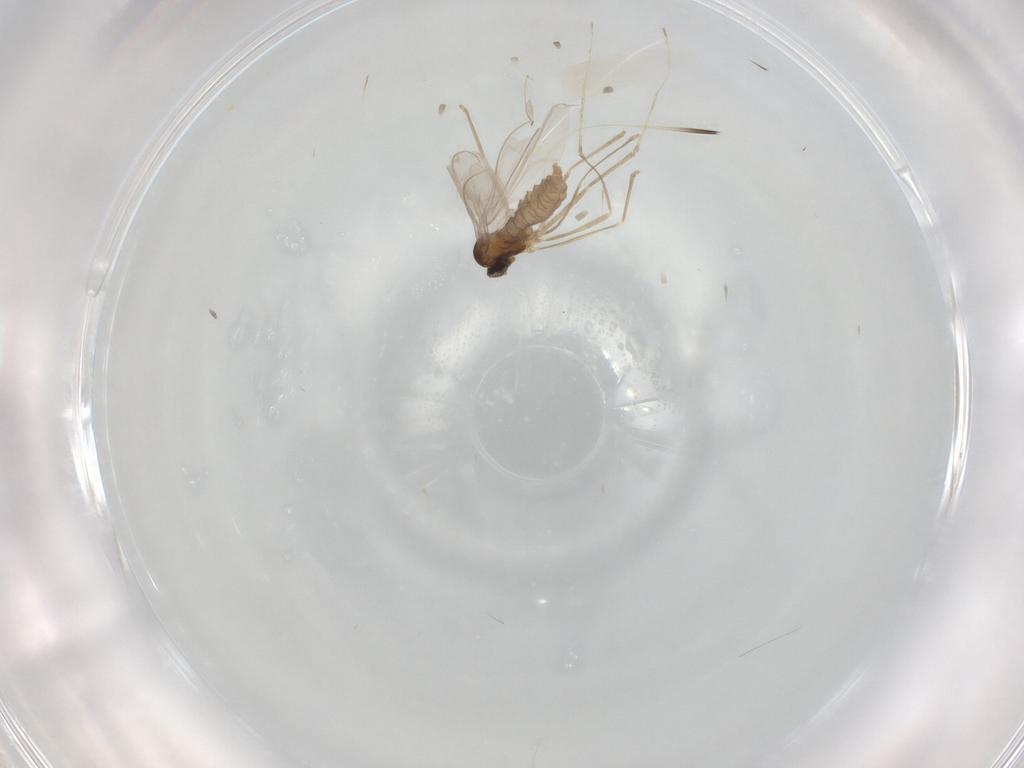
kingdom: Animalia
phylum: Arthropoda
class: Insecta
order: Diptera
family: Cecidomyiidae
